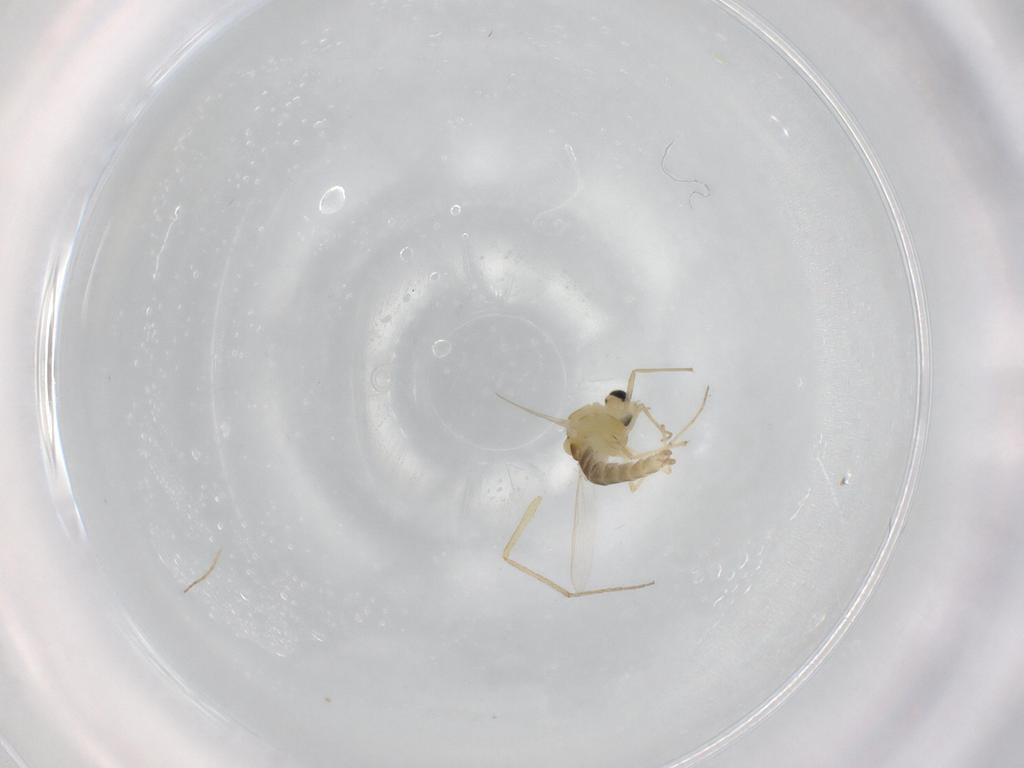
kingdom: Animalia
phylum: Arthropoda
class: Insecta
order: Diptera
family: Chironomidae
